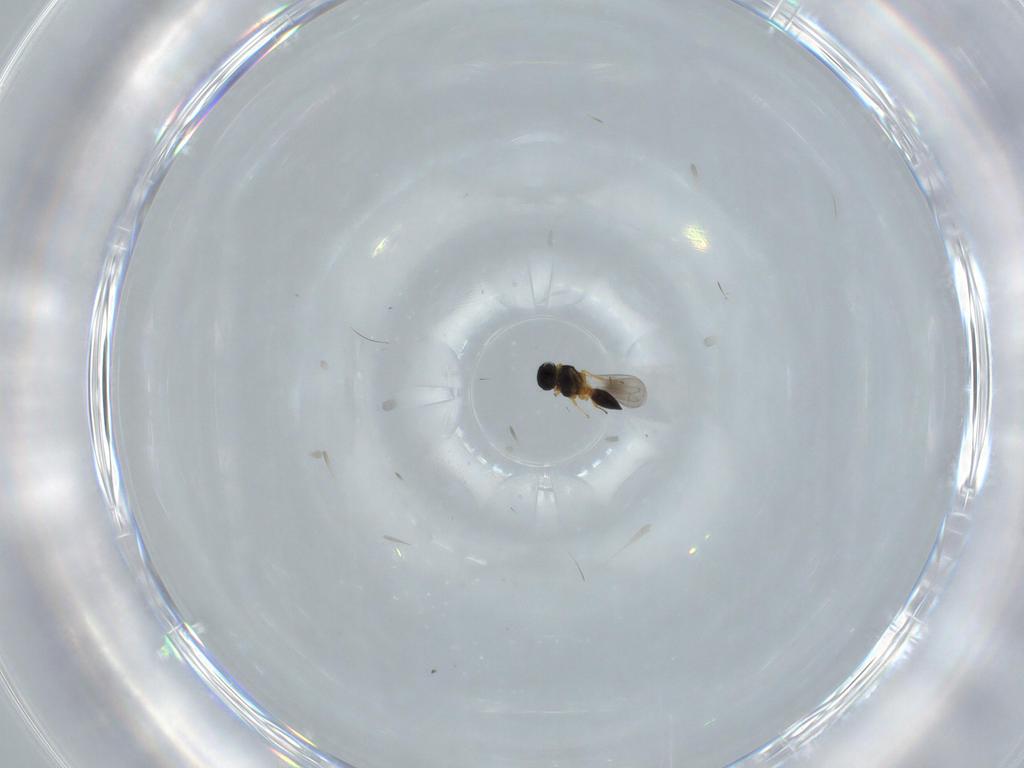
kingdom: Animalia
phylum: Arthropoda
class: Insecta
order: Hymenoptera
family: Platygastridae
